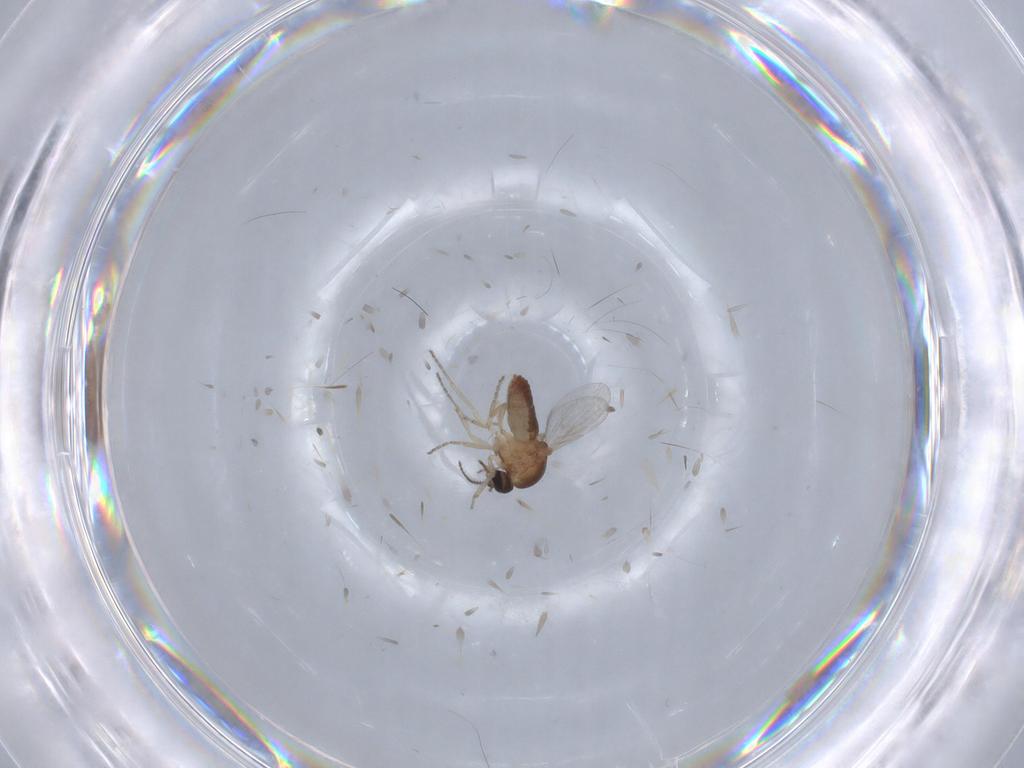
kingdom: Animalia
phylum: Arthropoda
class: Insecta
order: Diptera
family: Ceratopogonidae
